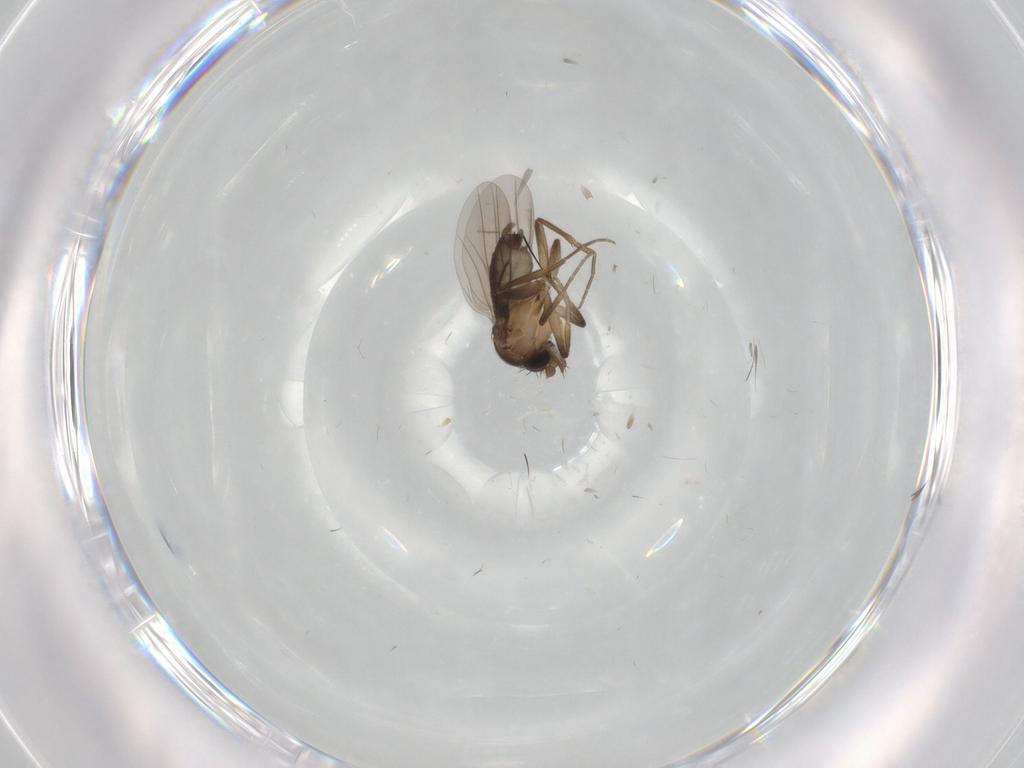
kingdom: Animalia
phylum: Arthropoda
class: Insecta
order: Diptera
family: Phoridae
